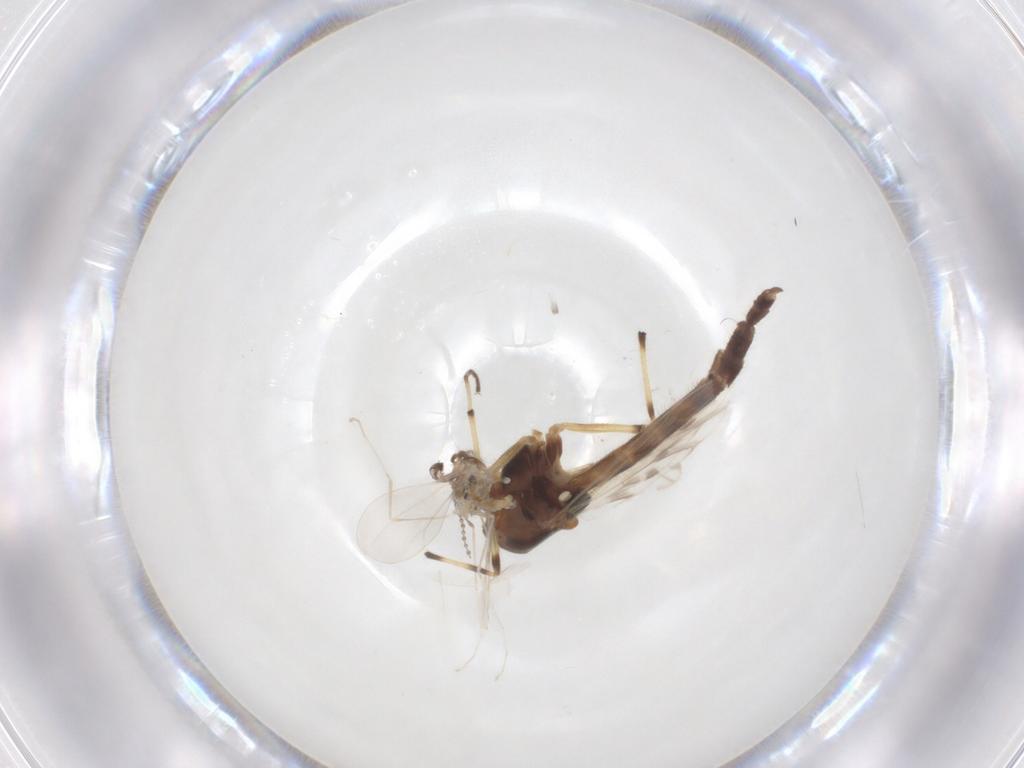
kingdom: Animalia
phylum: Arthropoda
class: Insecta
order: Diptera
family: Chironomidae
